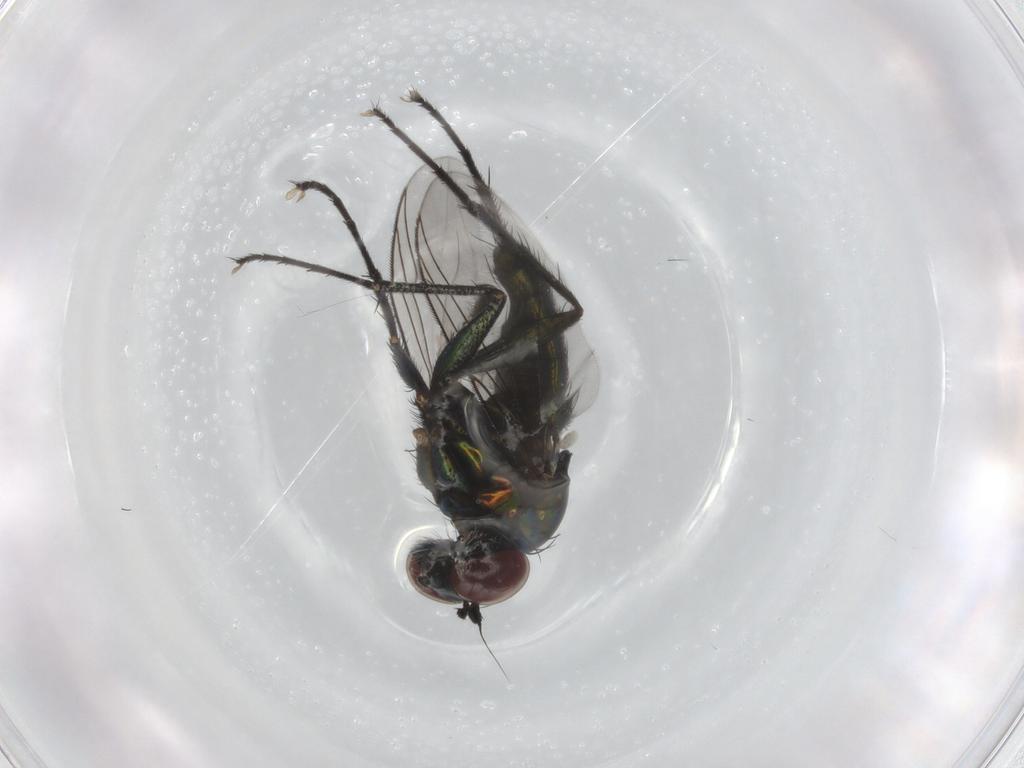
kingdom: Animalia
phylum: Arthropoda
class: Insecta
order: Diptera
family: Dolichopodidae
